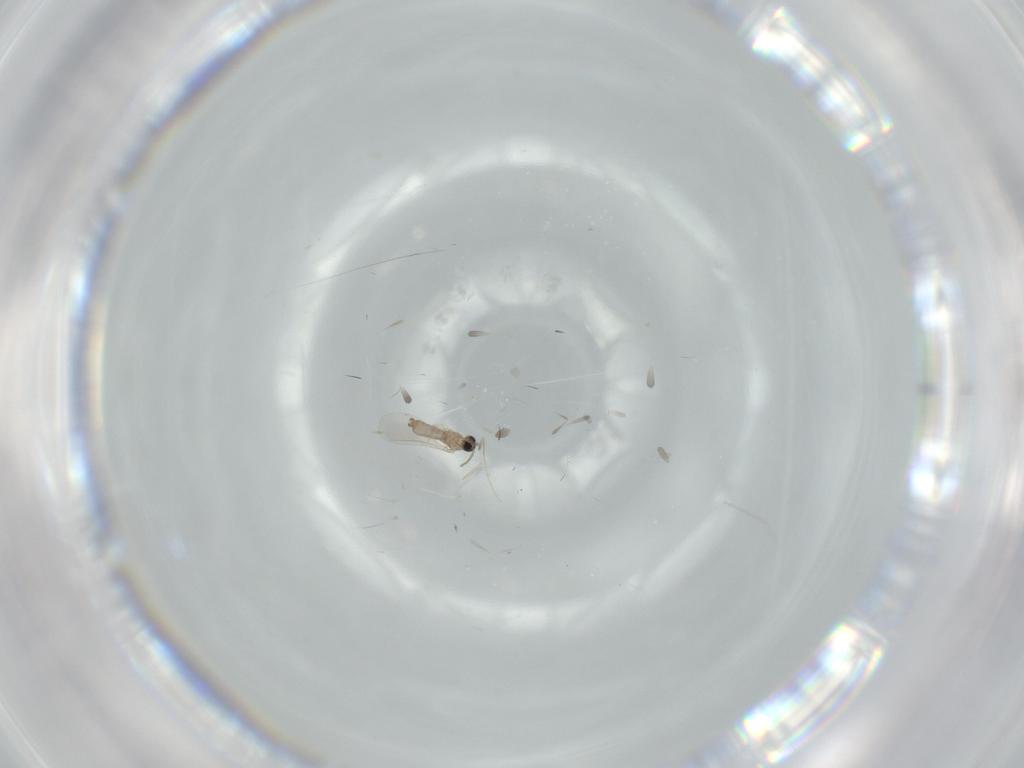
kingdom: Animalia
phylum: Arthropoda
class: Insecta
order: Diptera
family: Cecidomyiidae
